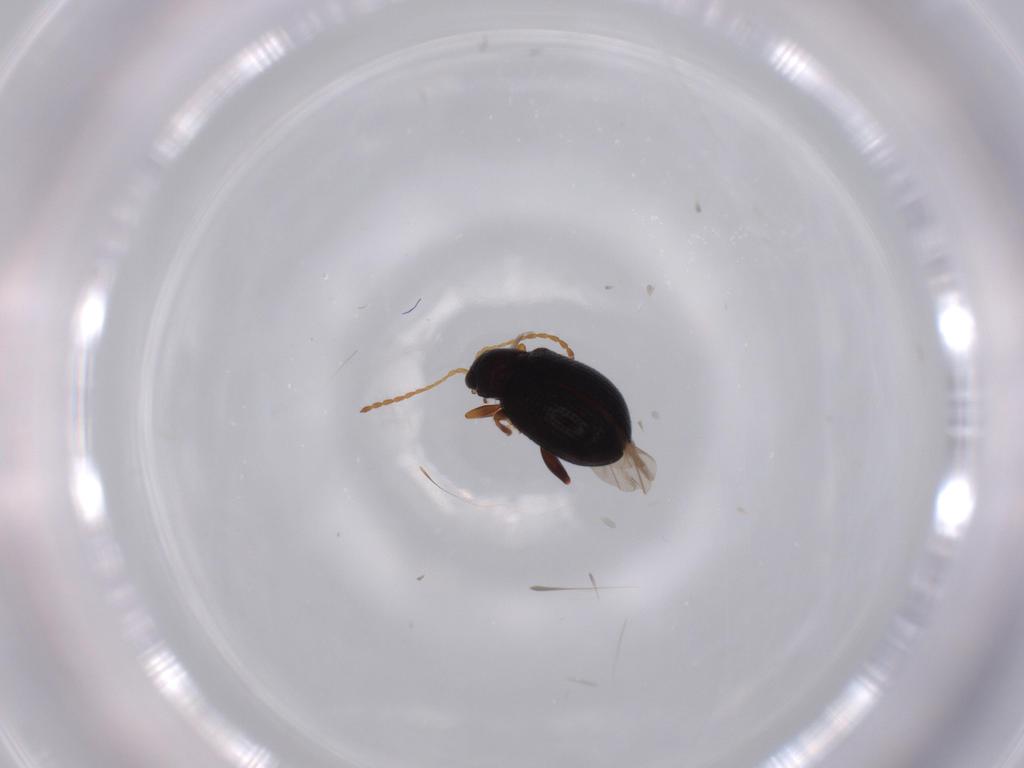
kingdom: Animalia
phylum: Arthropoda
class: Insecta
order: Coleoptera
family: Chrysomelidae
